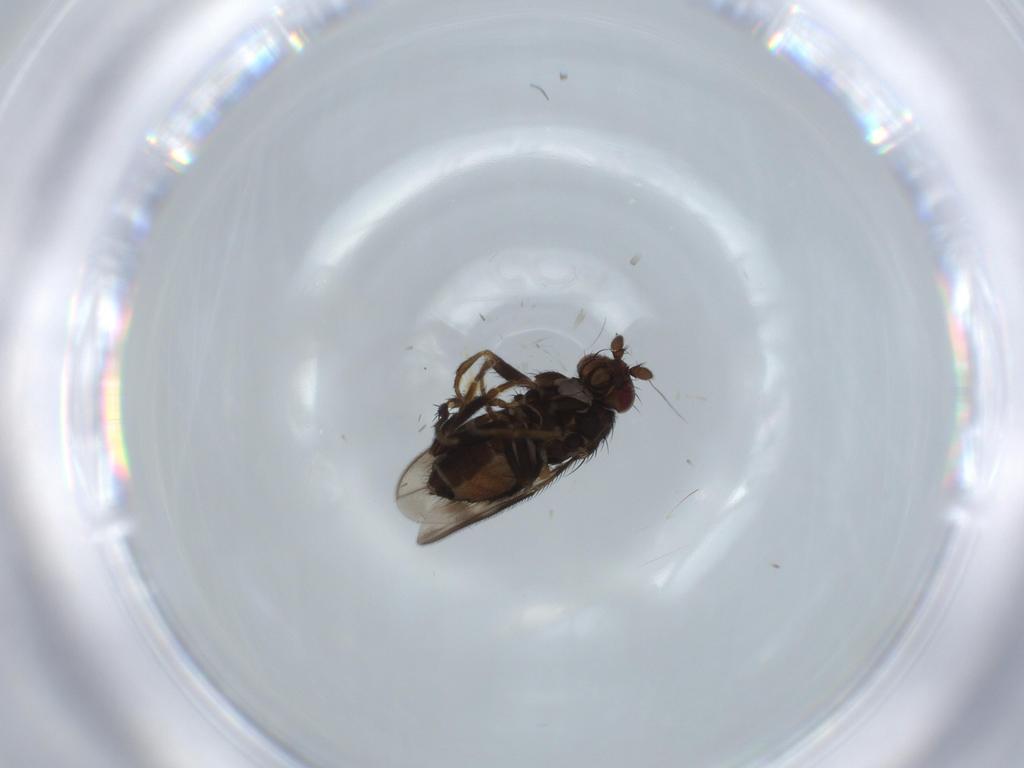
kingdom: Animalia
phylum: Arthropoda
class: Insecta
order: Diptera
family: Sphaeroceridae
